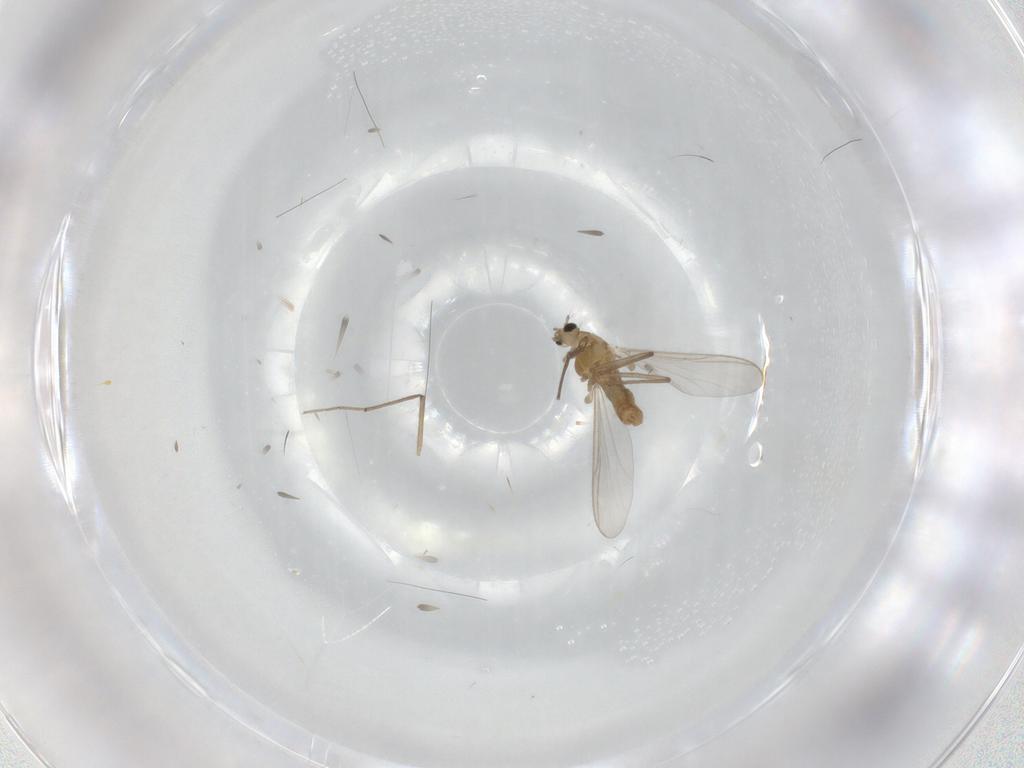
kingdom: Animalia
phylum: Arthropoda
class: Insecta
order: Diptera
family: Chironomidae
